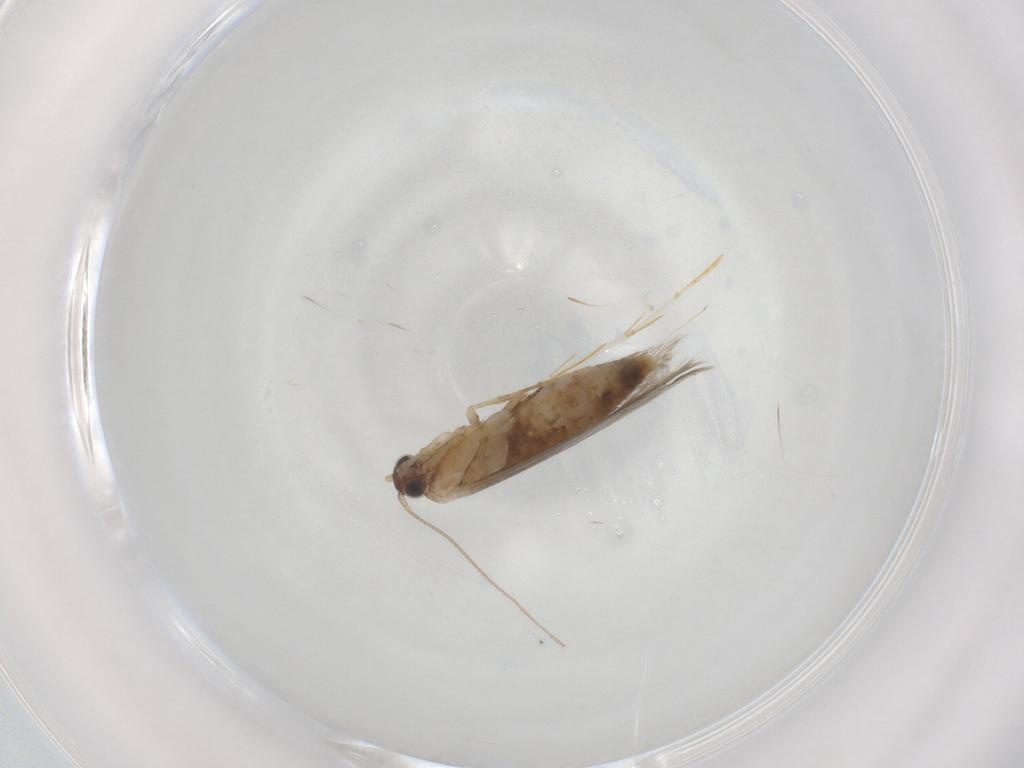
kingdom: Animalia
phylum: Arthropoda
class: Insecta
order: Lepidoptera
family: Tineidae
